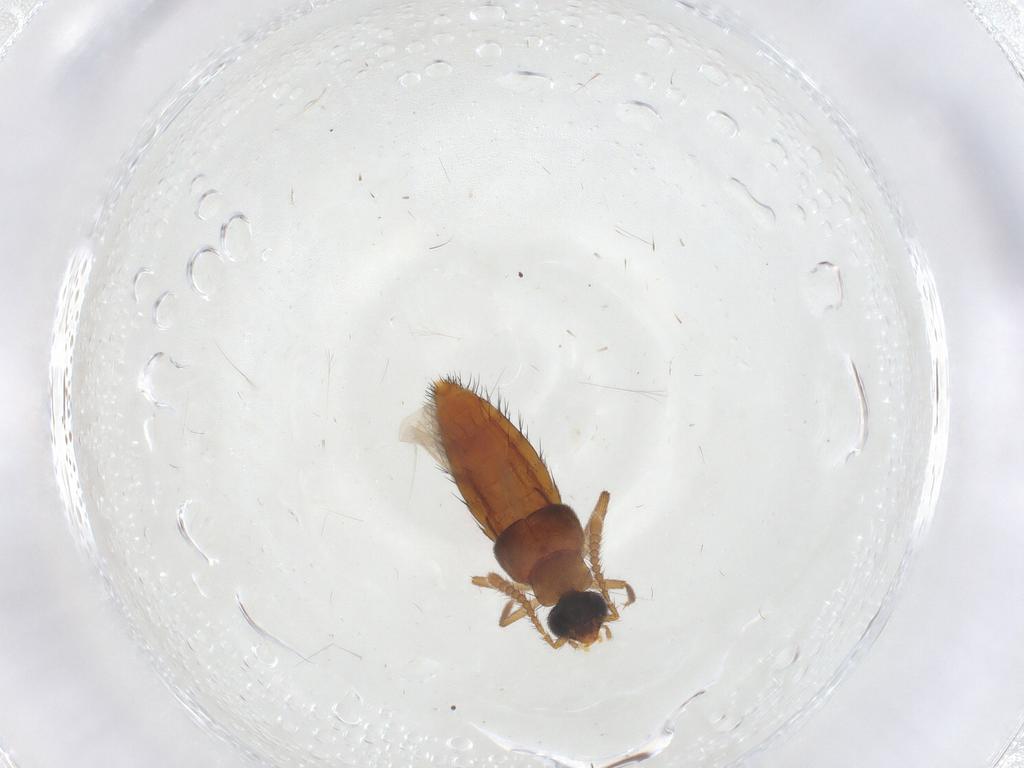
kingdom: Animalia
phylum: Arthropoda
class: Insecta
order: Coleoptera
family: Staphylinidae
